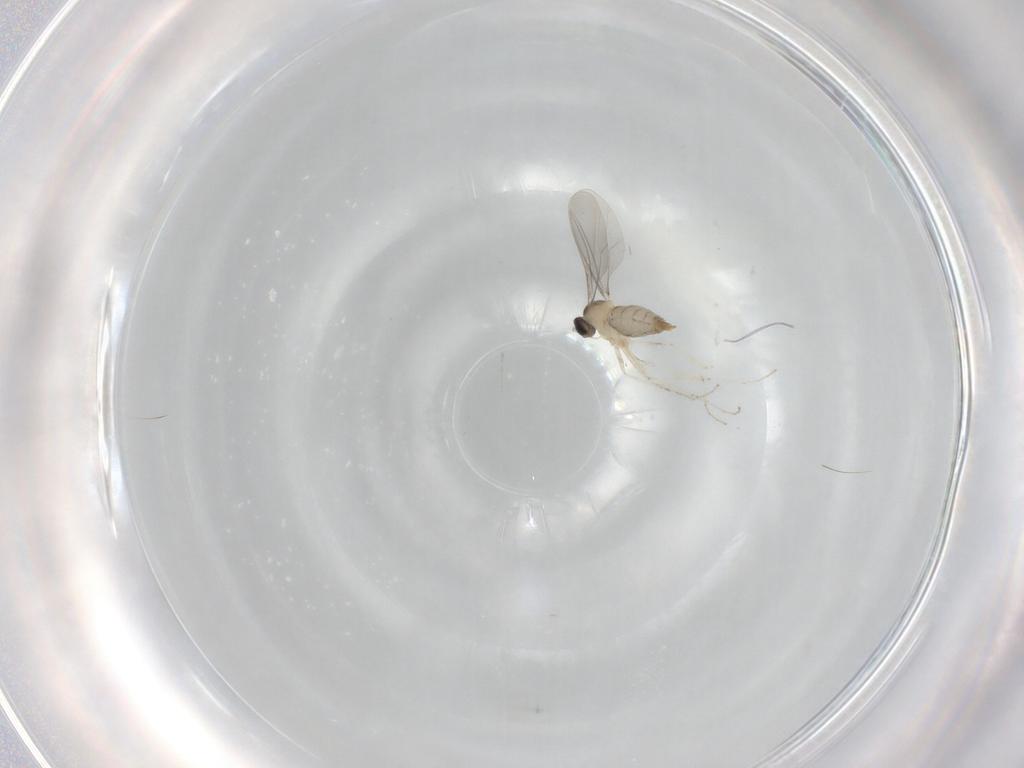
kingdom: Animalia
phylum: Arthropoda
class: Insecta
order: Diptera
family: Cecidomyiidae
